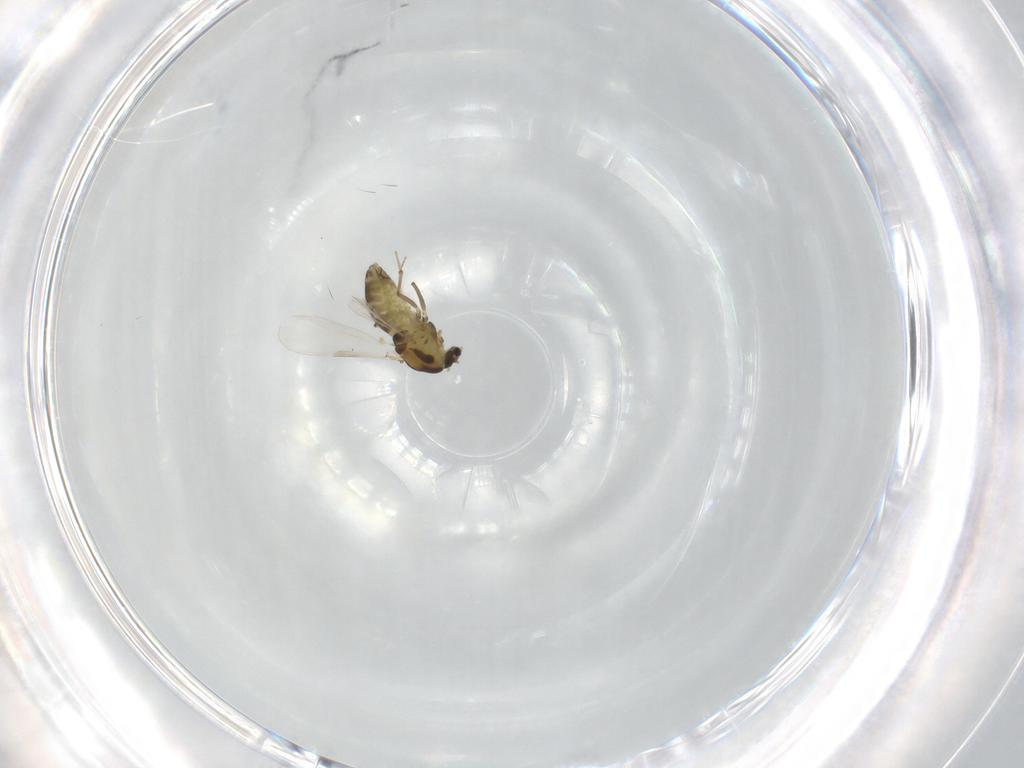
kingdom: Animalia
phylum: Arthropoda
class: Insecta
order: Diptera
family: Chironomidae
